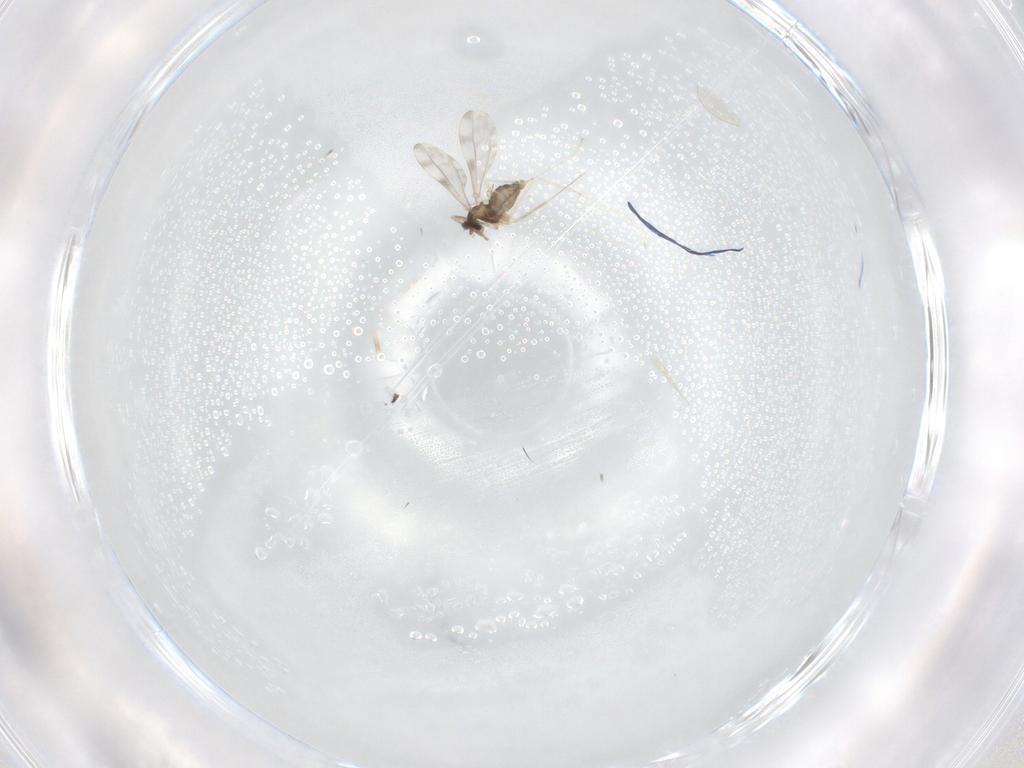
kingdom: Animalia
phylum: Arthropoda
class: Insecta
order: Diptera
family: Cecidomyiidae
